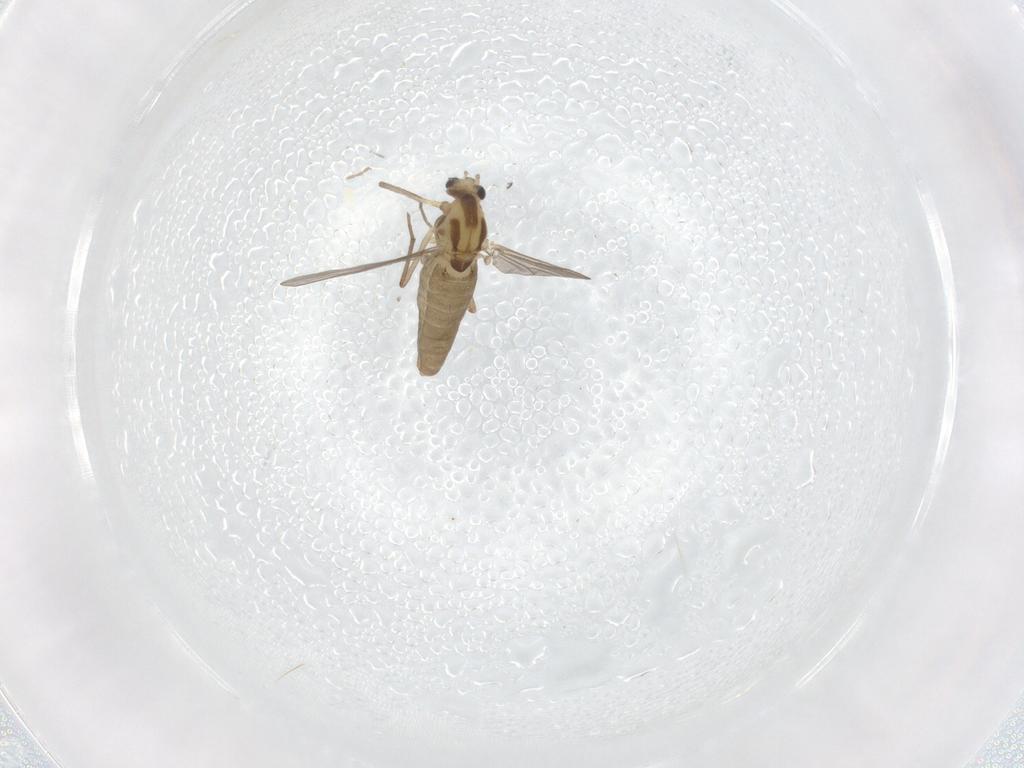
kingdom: Animalia
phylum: Arthropoda
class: Insecta
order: Diptera
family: Chironomidae
